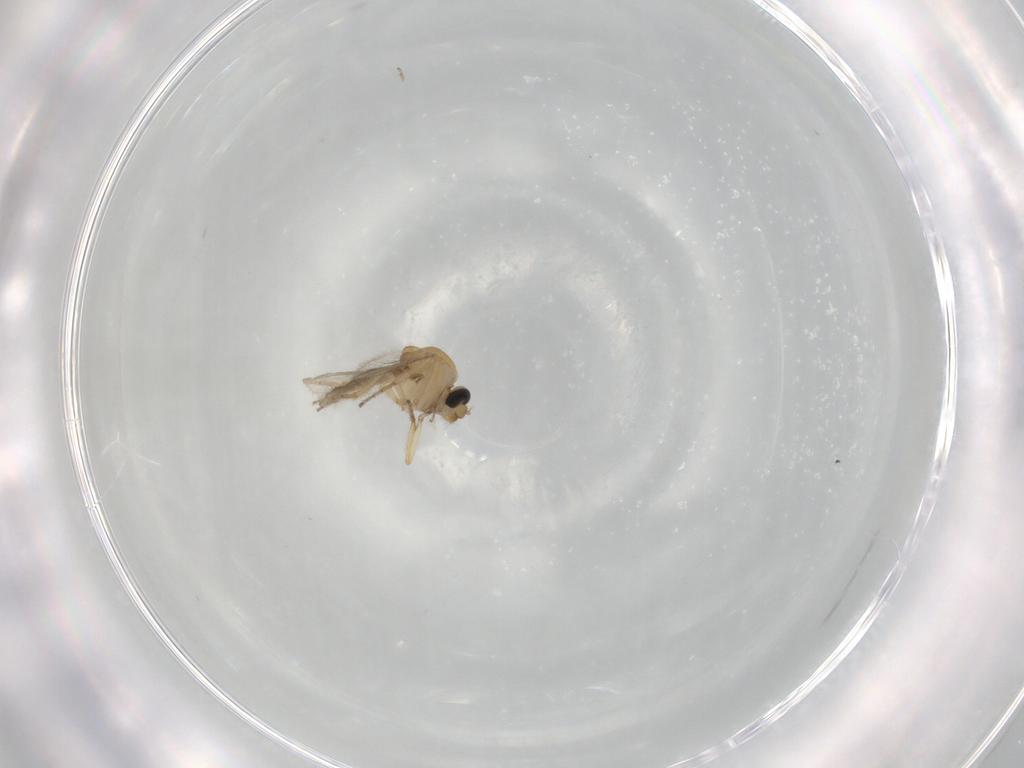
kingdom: Animalia
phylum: Arthropoda
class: Insecta
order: Diptera
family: Ceratopogonidae
